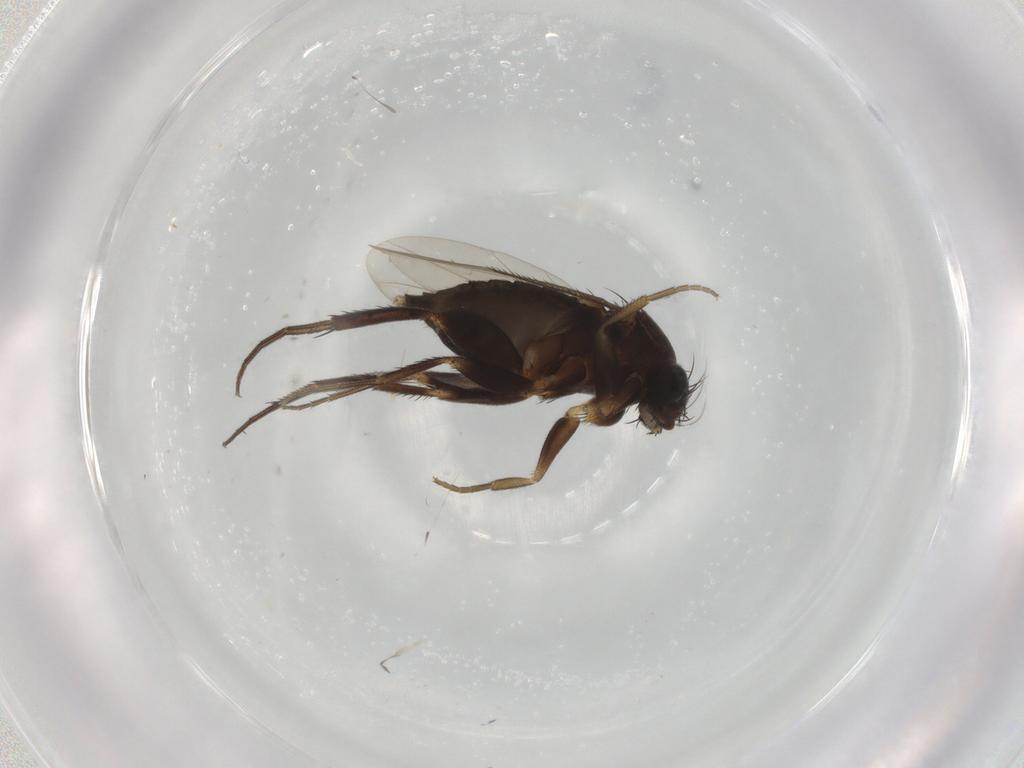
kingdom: Animalia
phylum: Arthropoda
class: Insecta
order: Diptera
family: Phoridae
